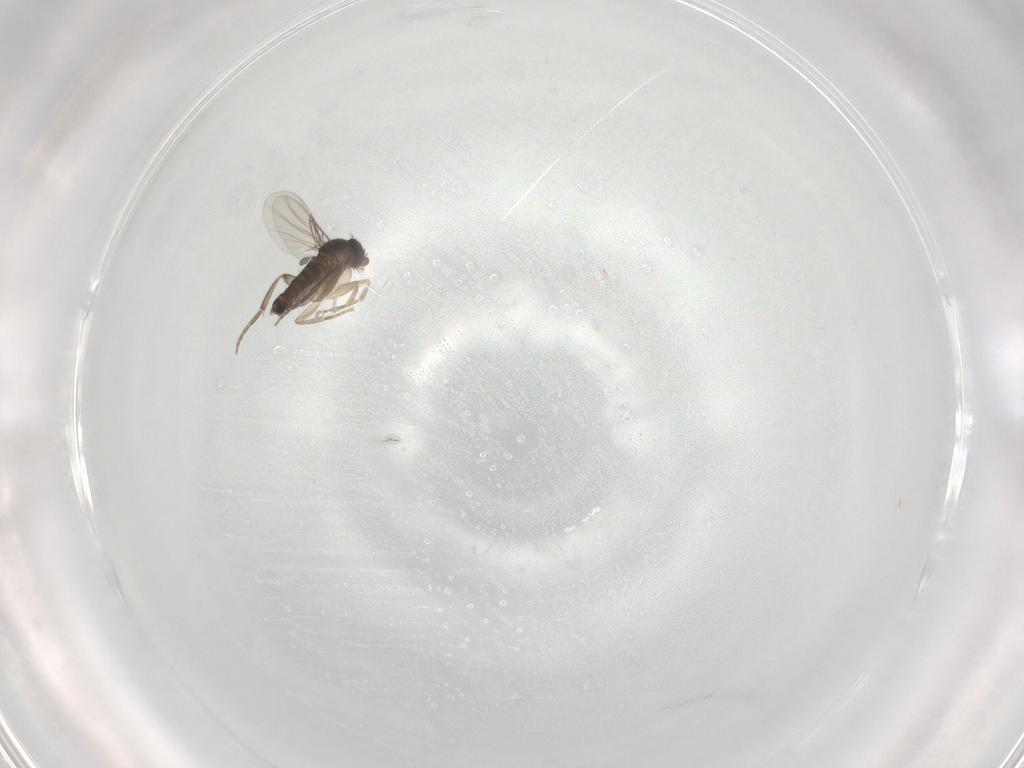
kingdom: Animalia
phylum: Arthropoda
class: Insecta
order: Diptera
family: Phoridae
